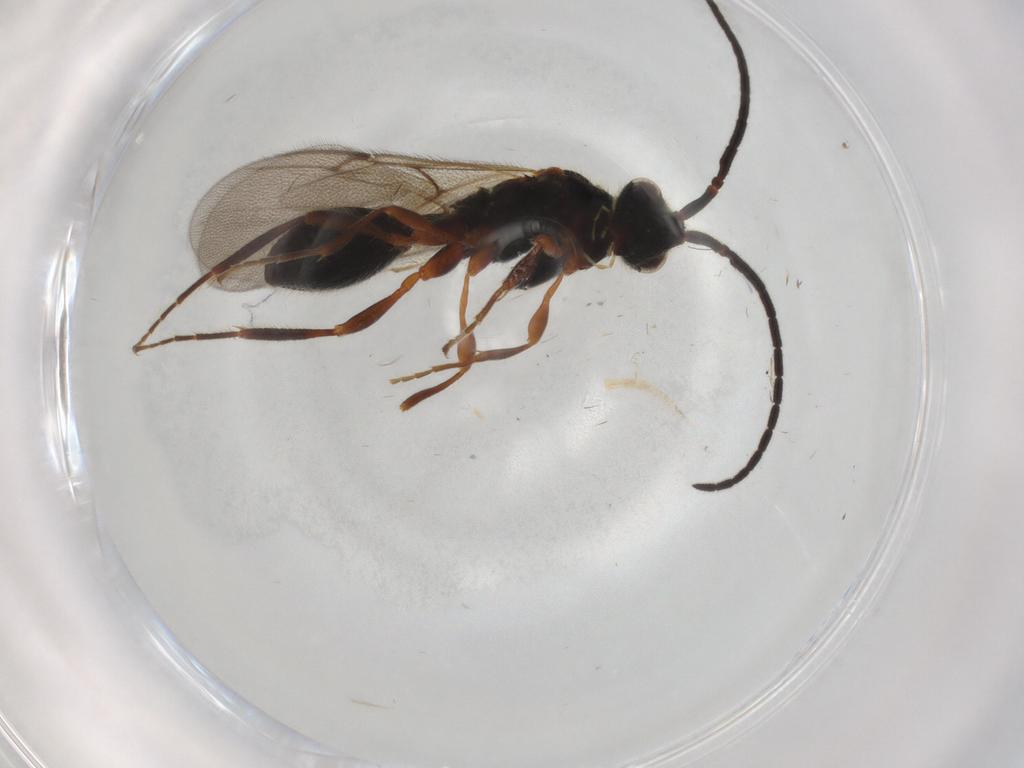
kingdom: Animalia
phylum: Arthropoda
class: Insecta
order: Hymenoptera
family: Diapriidae
